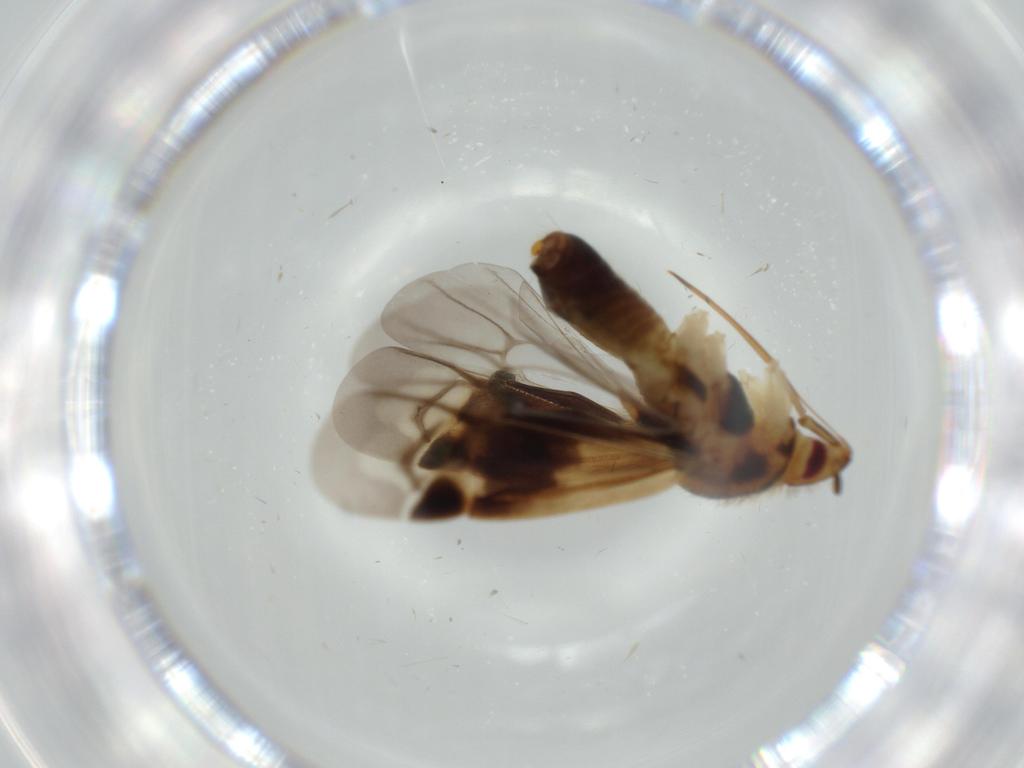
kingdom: Animalia
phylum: Arthropoda
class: Insecta
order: Hemiptera
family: Miridae
